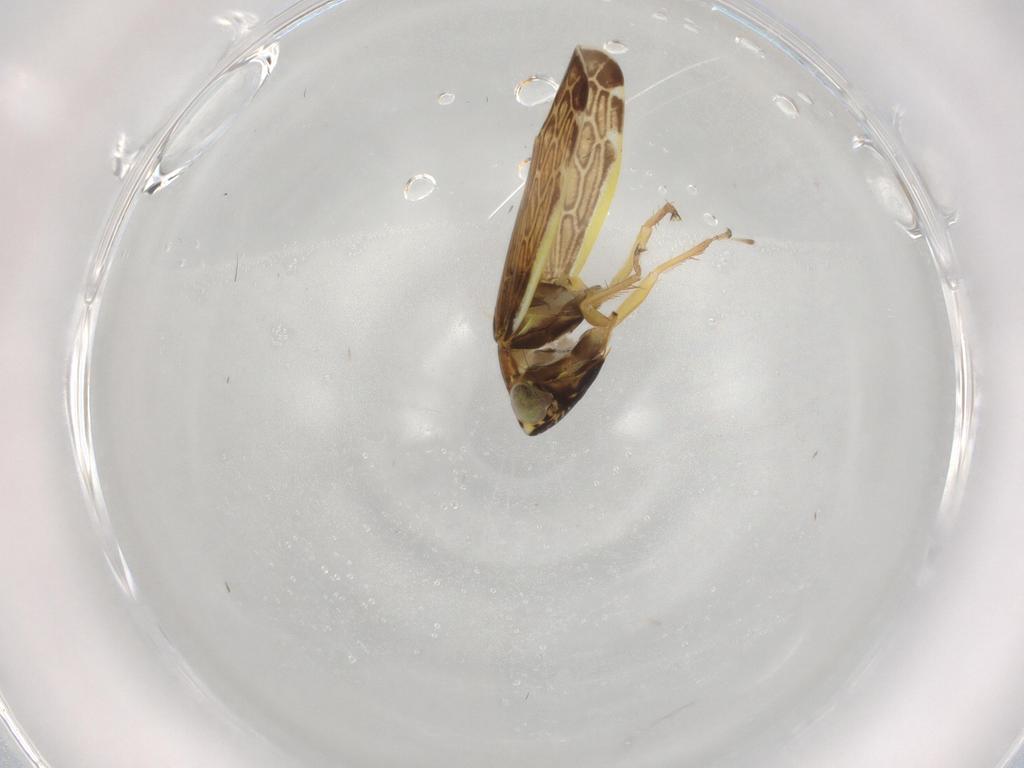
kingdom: Animalia
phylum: Arthropoda
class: Insecta
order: Hemiptera
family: Cicadellidae
